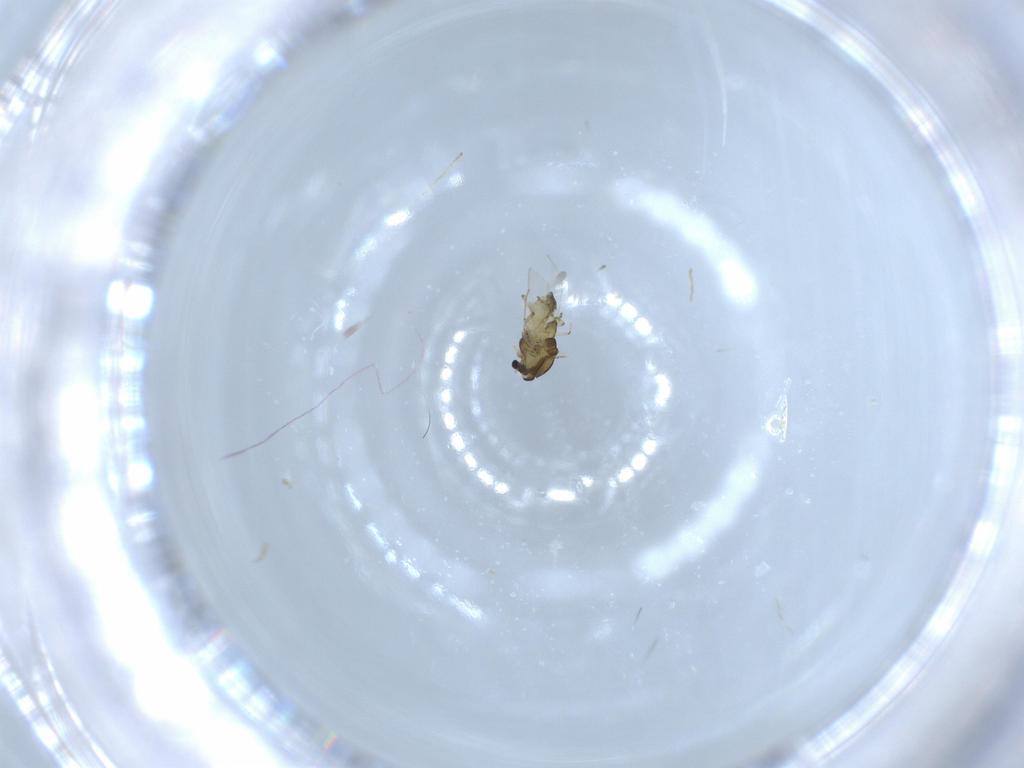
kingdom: Animalia
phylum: Arthropoda
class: Insecta
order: Diptera
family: Chironomidae
